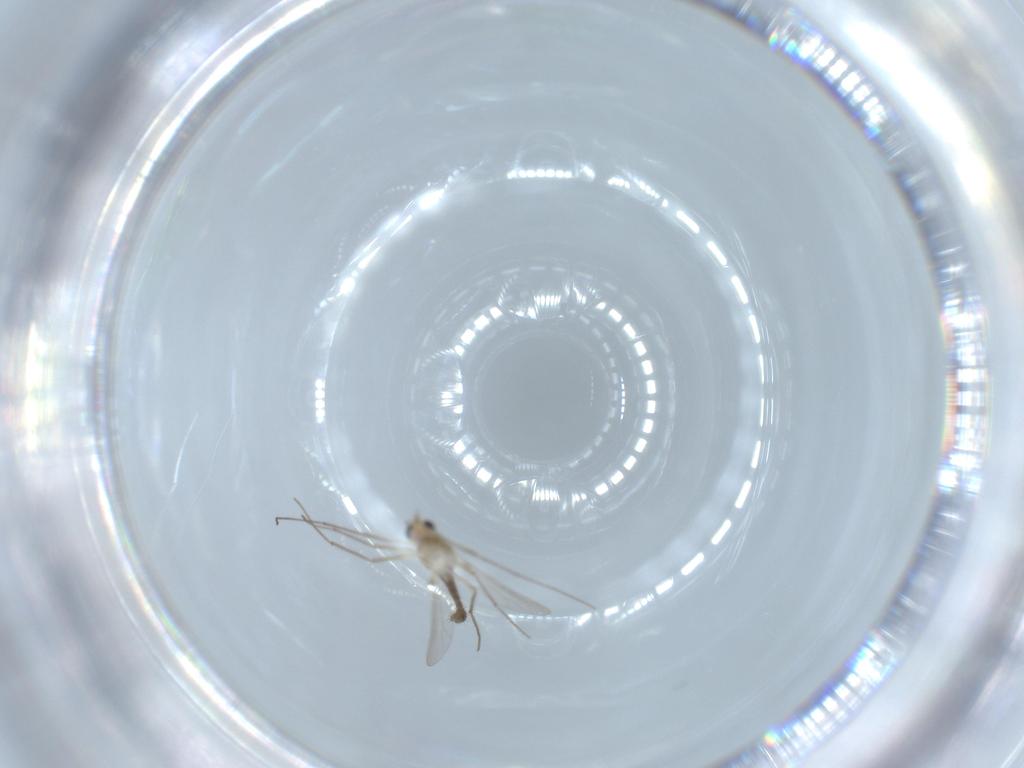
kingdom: Animalia
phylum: Arthropoda
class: Insecta
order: Diptera
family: Chironomidae
